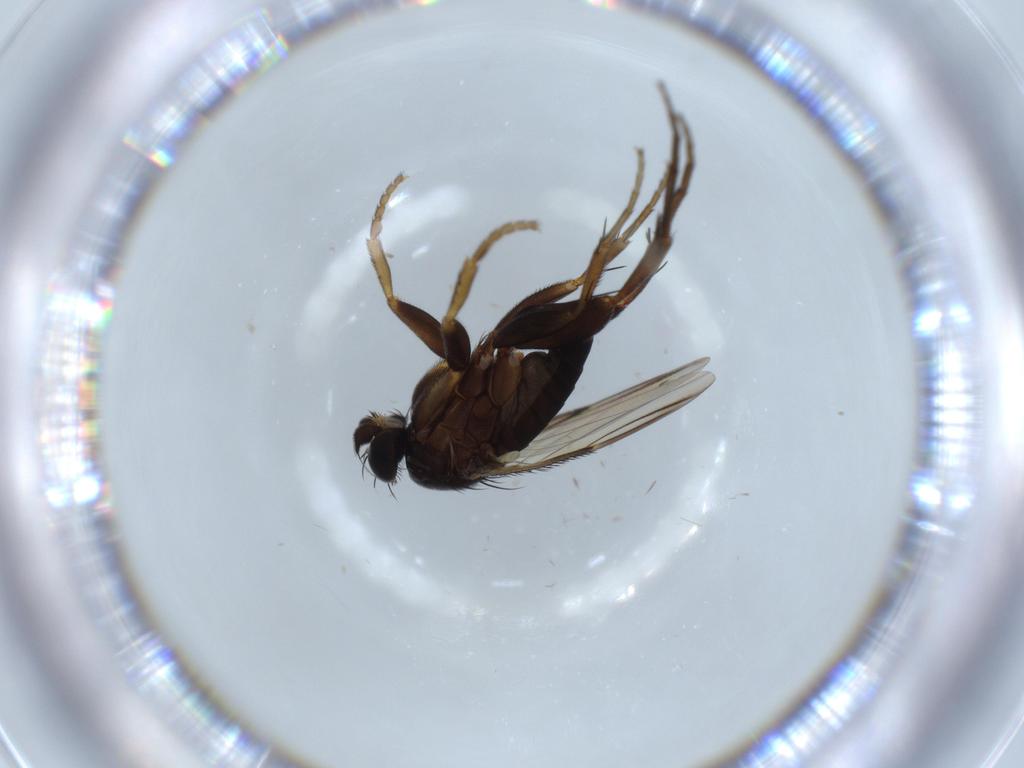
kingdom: Animalia
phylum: Arthropoda
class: Insecta
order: Diptera
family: Phoridae
